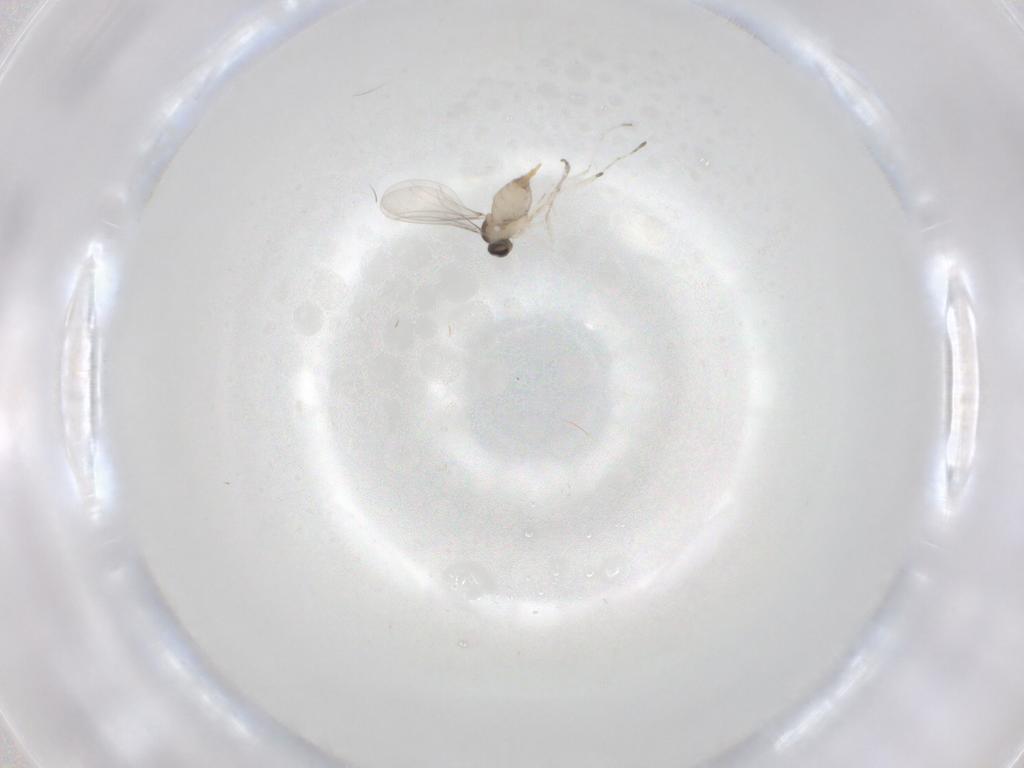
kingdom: Animalia
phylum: Arthropoda
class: Insecta
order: Diptera
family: Cecidomyiidae
